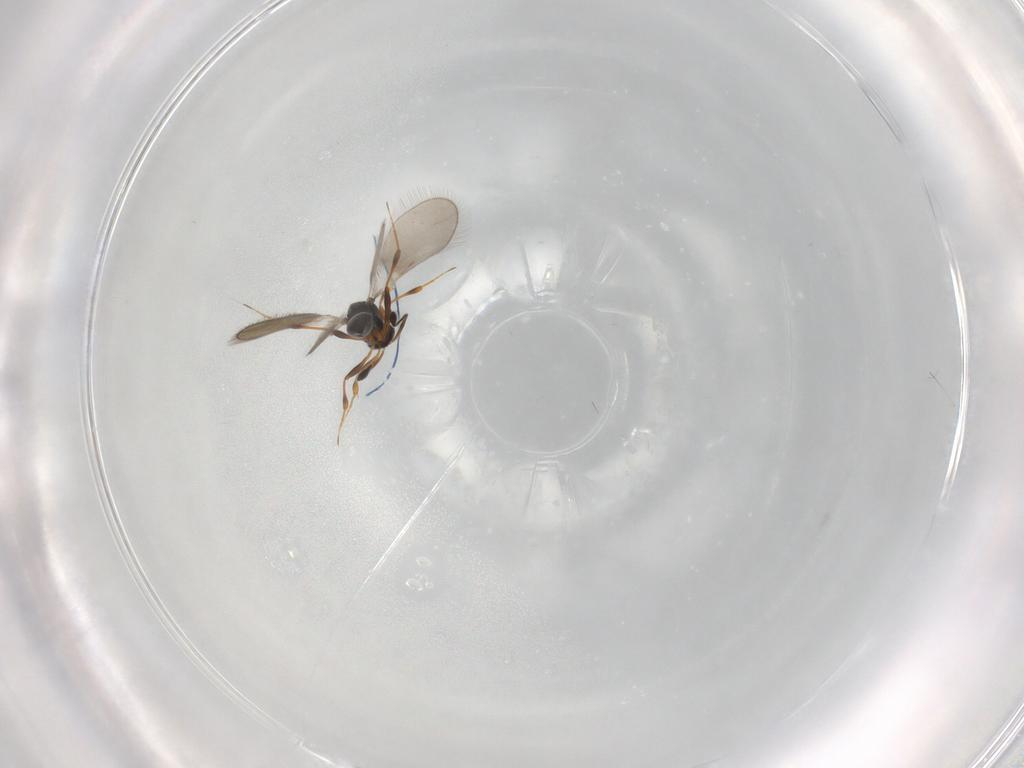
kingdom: Animalia
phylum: Arthropoda
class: Insecta
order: Hymenoptera
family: Platygastridae
